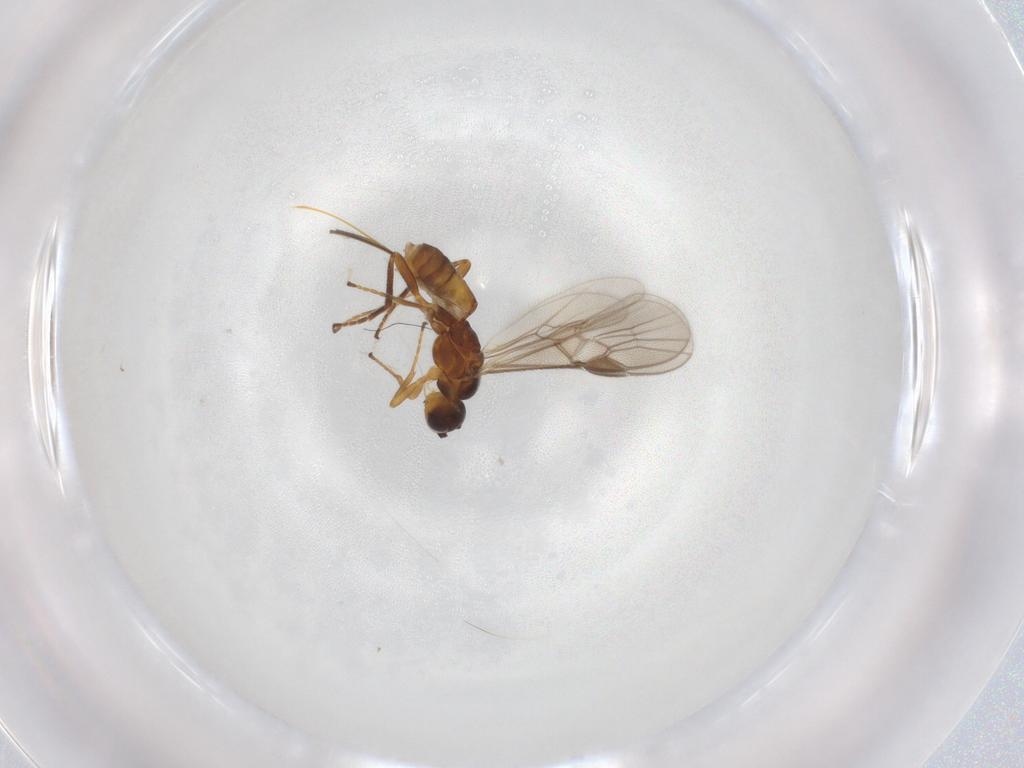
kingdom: Animalia
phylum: Arthropoda
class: Insecta
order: Hymenoptera
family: Braconidae
